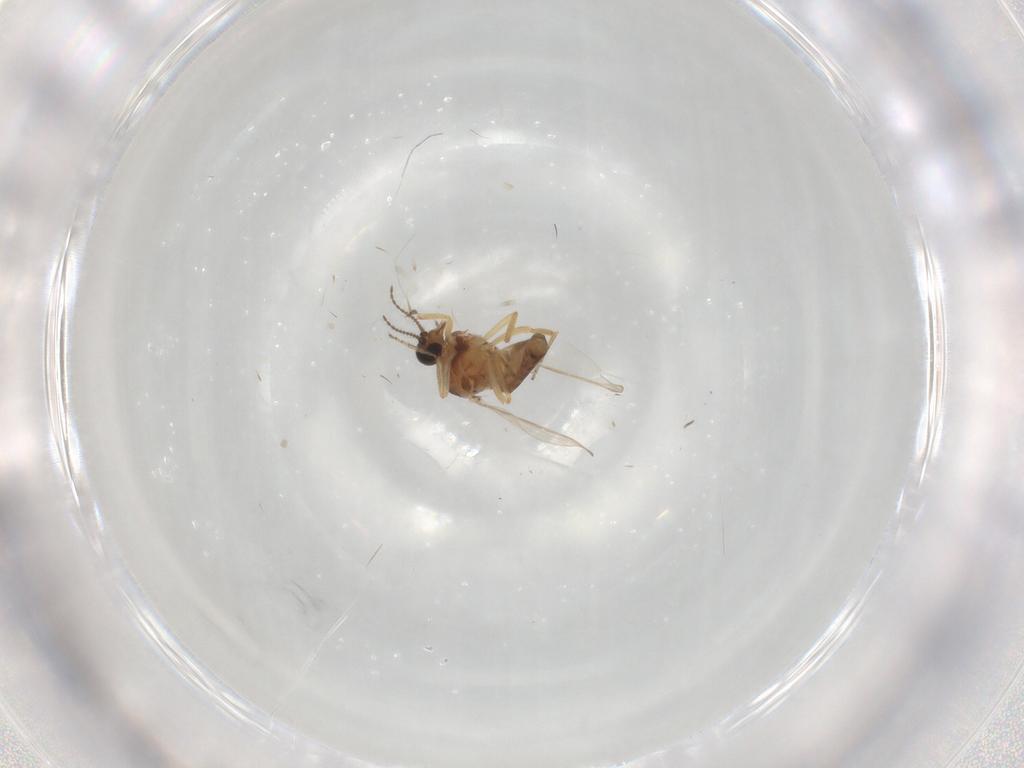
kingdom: Animalia
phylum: Arthropoda
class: Insecta
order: Diptera
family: Ceratopogonidae
